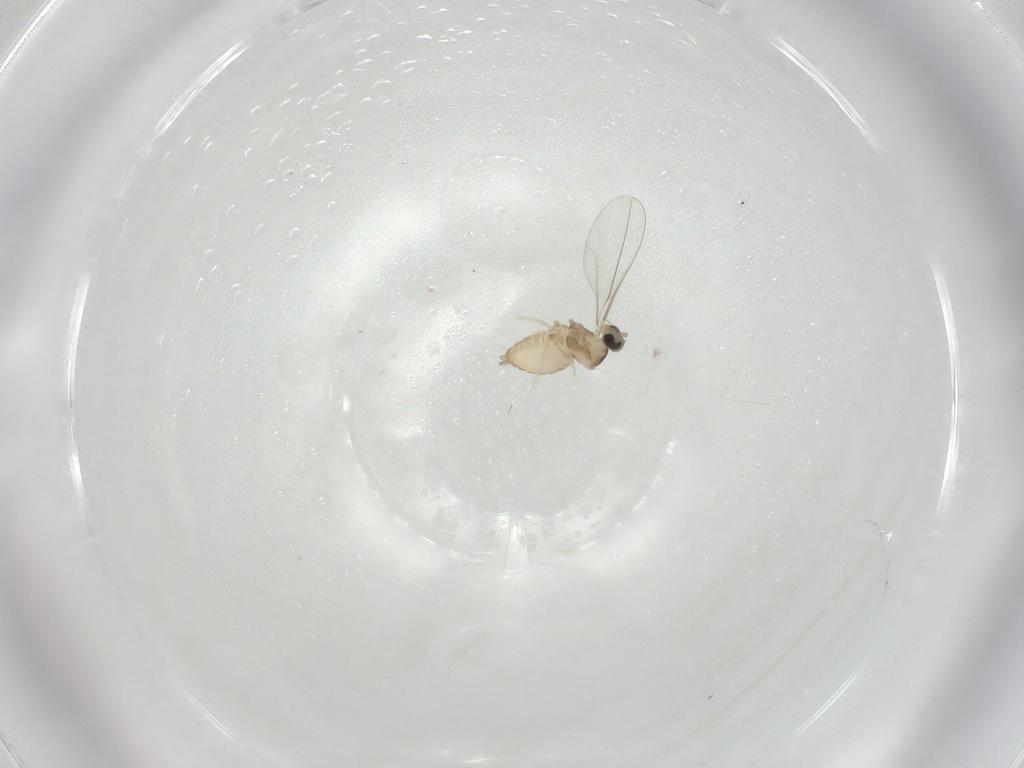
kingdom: Animalia
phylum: Arthropoda
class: Insecta
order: Diptera
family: Cecidomyiidae
